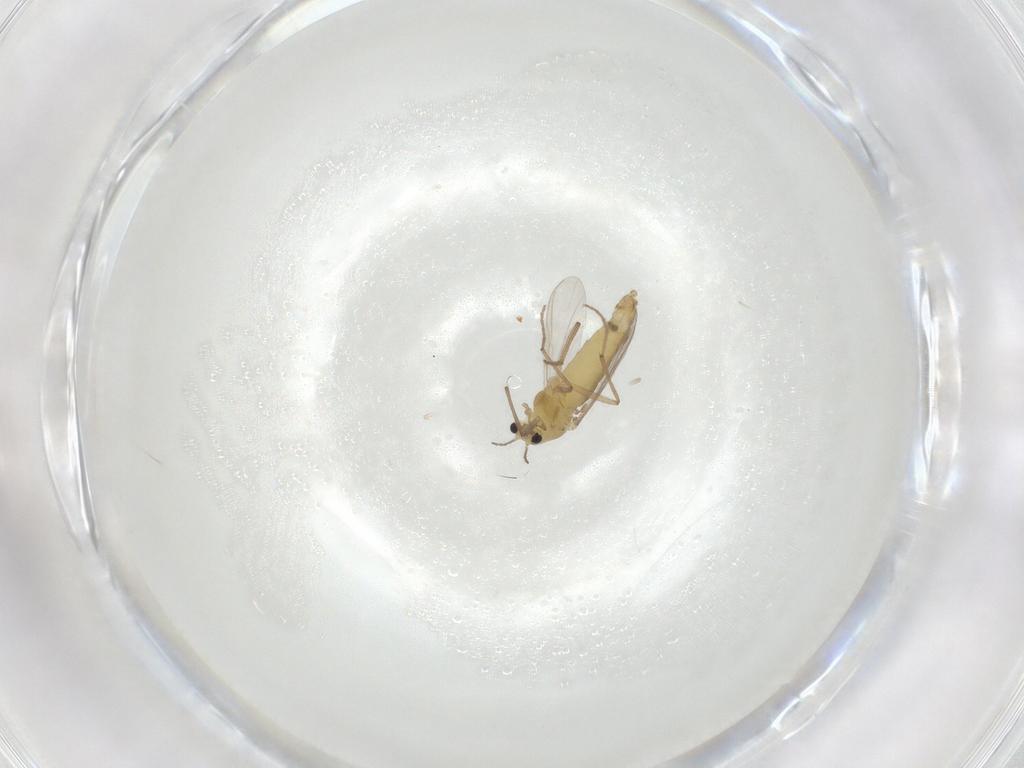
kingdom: Animalia
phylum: Arthropoda
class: Insecta
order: Diptera
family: Chironomidae
